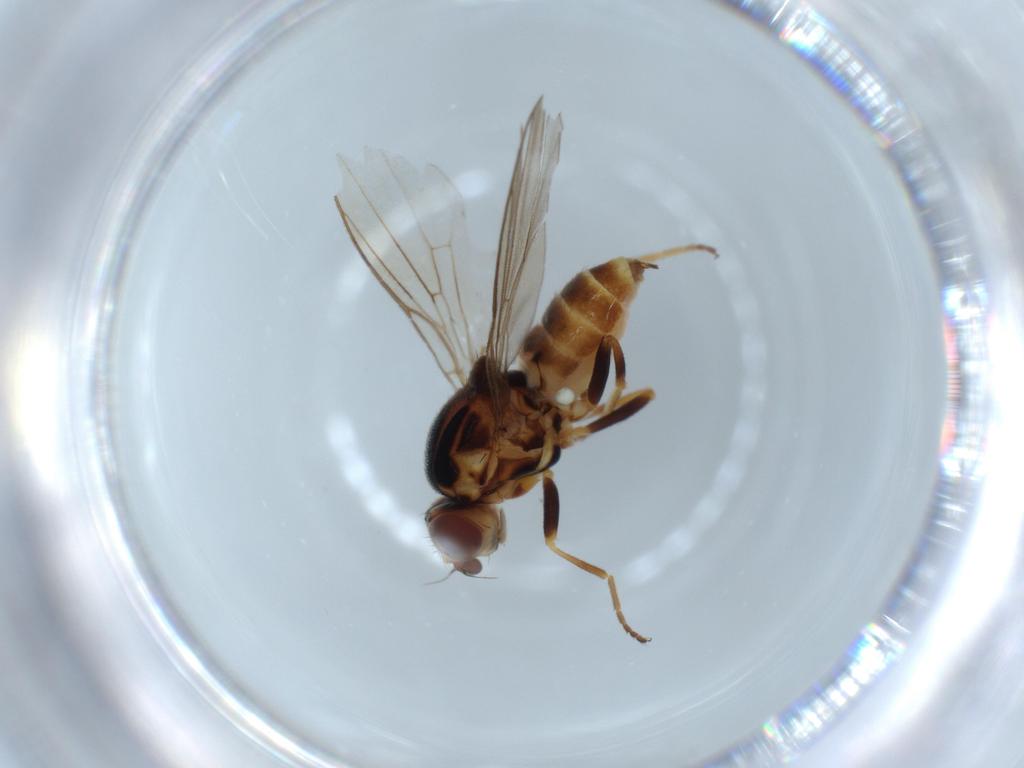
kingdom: Animalia
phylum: Arthropoda
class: Insecta
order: Diptera
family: Chloropidae
